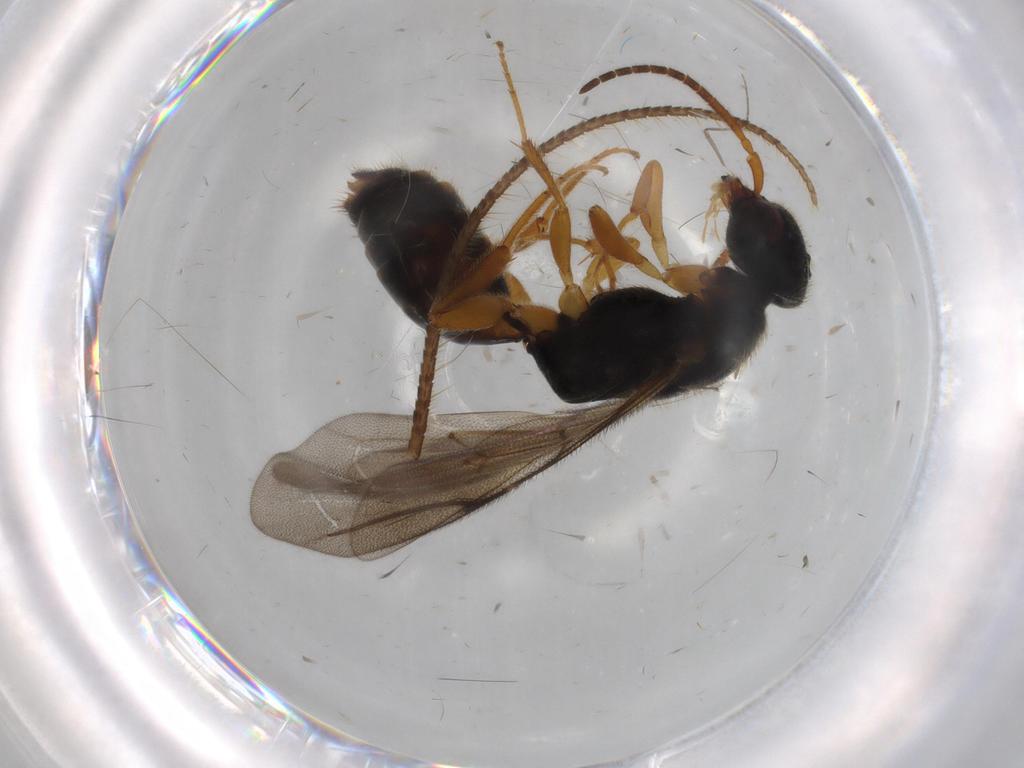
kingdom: Animalia
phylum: Arthropoda
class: Insecta
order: Hymenoptera
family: Bethylidae
